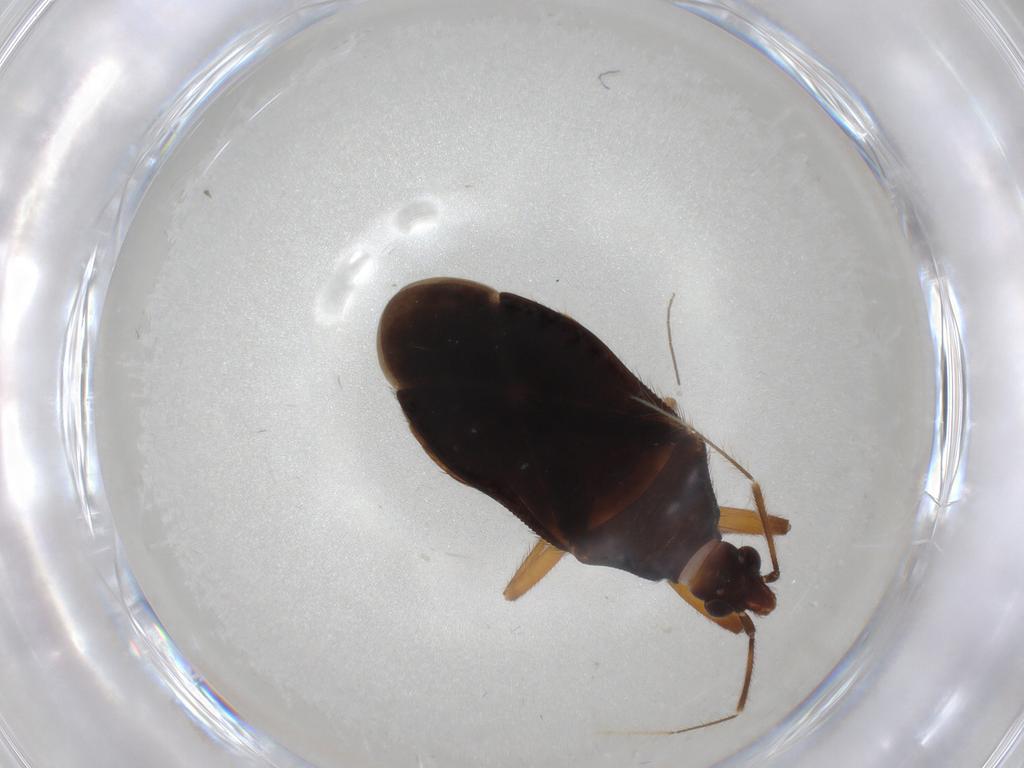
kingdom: Animalia
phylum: Arthropoda
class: Insecta
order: Hemiptera
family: Anthocoridae
